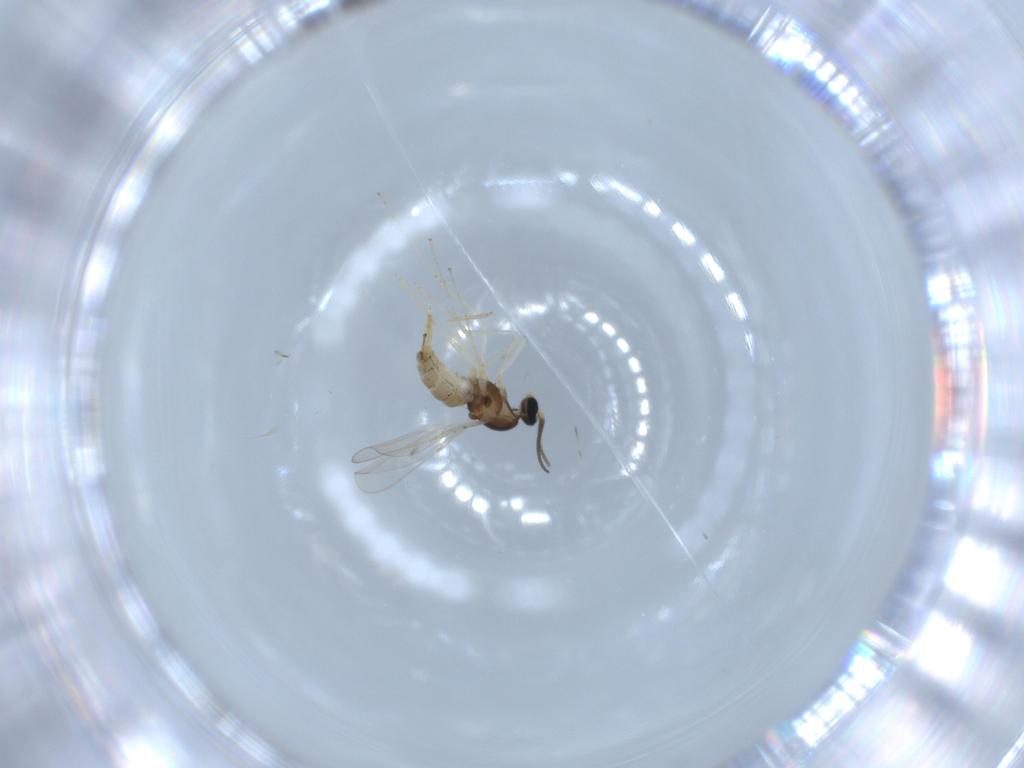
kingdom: Animalia
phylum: Arthropoda
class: Insecta
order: Diptera
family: Cecidomyiidae
